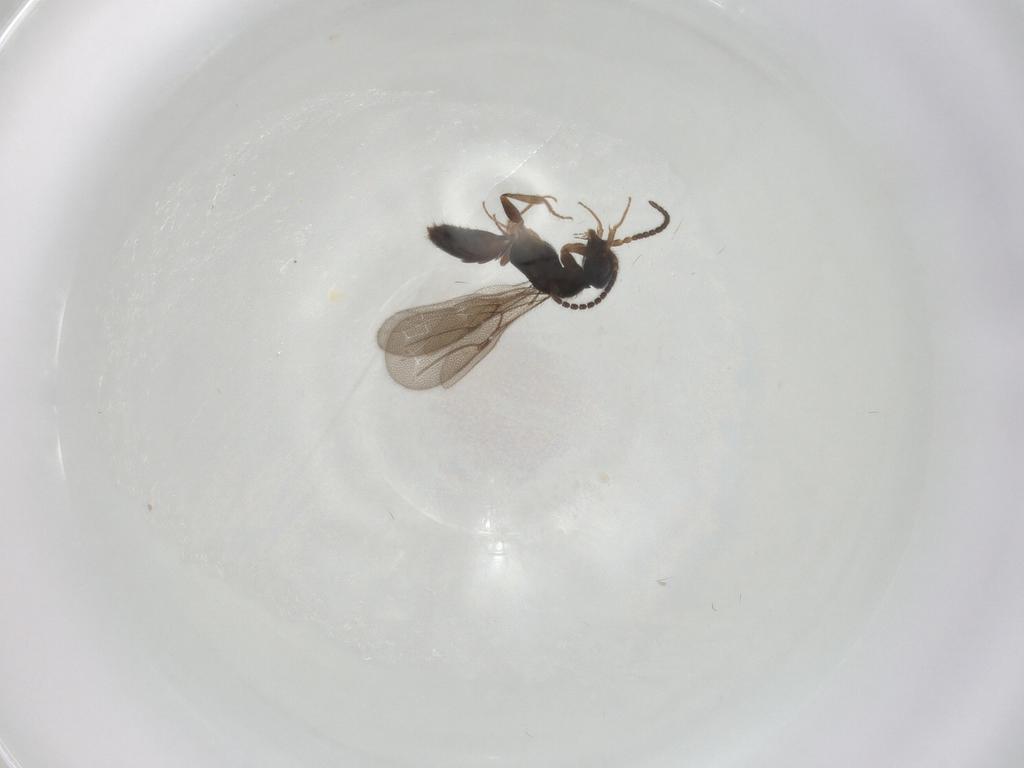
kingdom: Animalia
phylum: Arthropoda
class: Insecta
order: Hymenoptera
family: Bethylidae
